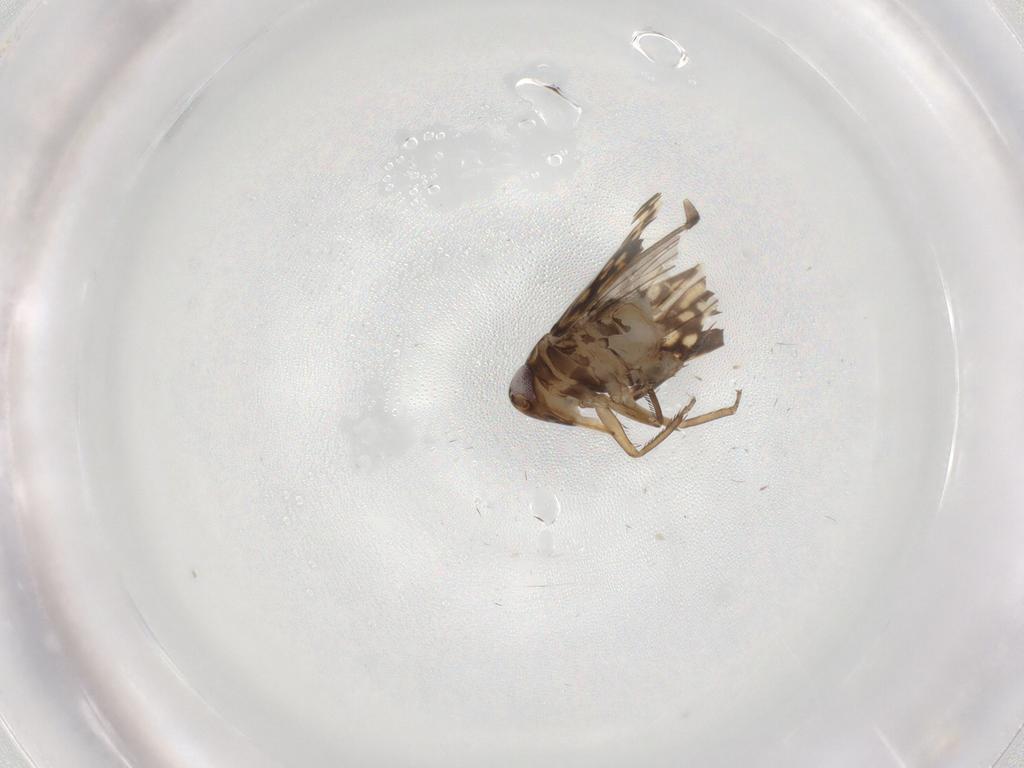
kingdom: Animalia
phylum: Arthropoda
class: Insecta
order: Hemiptera
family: Cicadellidae
